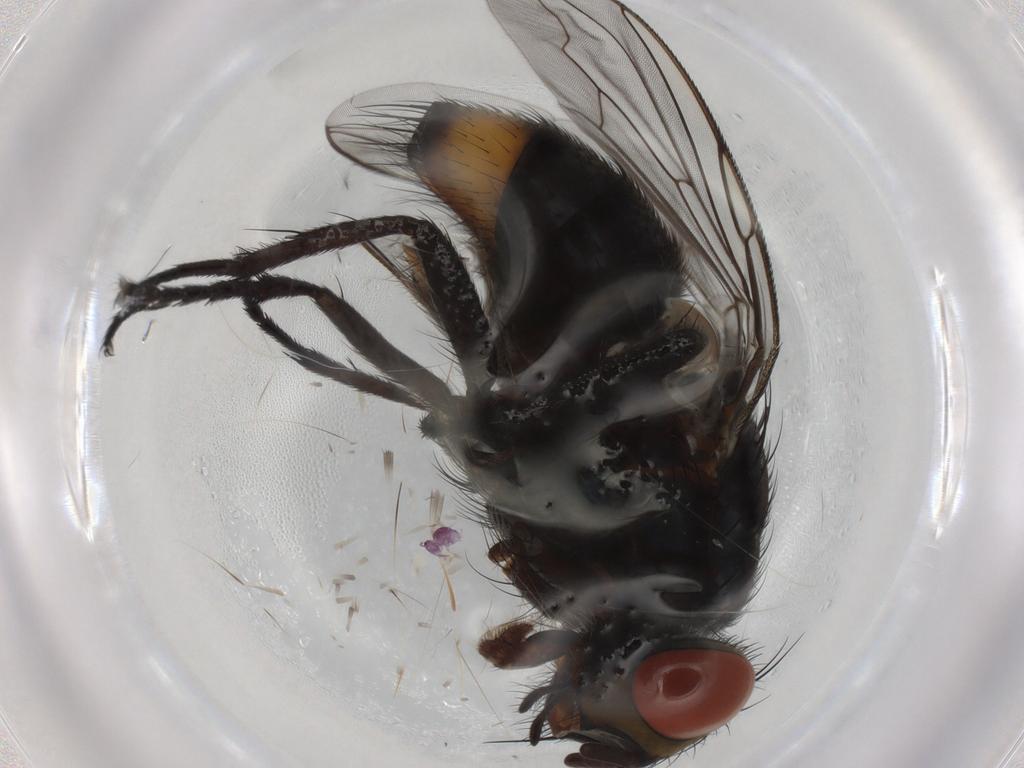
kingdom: Animalia
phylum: Arthropoda
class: Insecta
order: Diptera
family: Sarcophagidae
